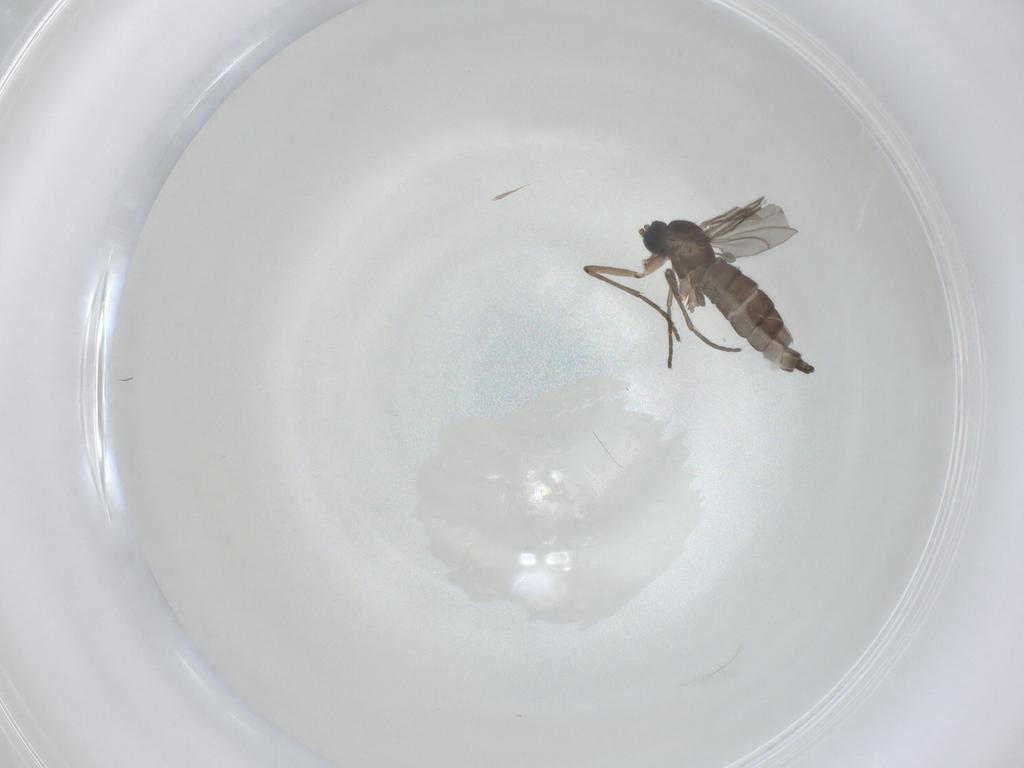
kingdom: Animalia
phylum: Arthropoda
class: Insecta
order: Diptera
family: Sciaridae
